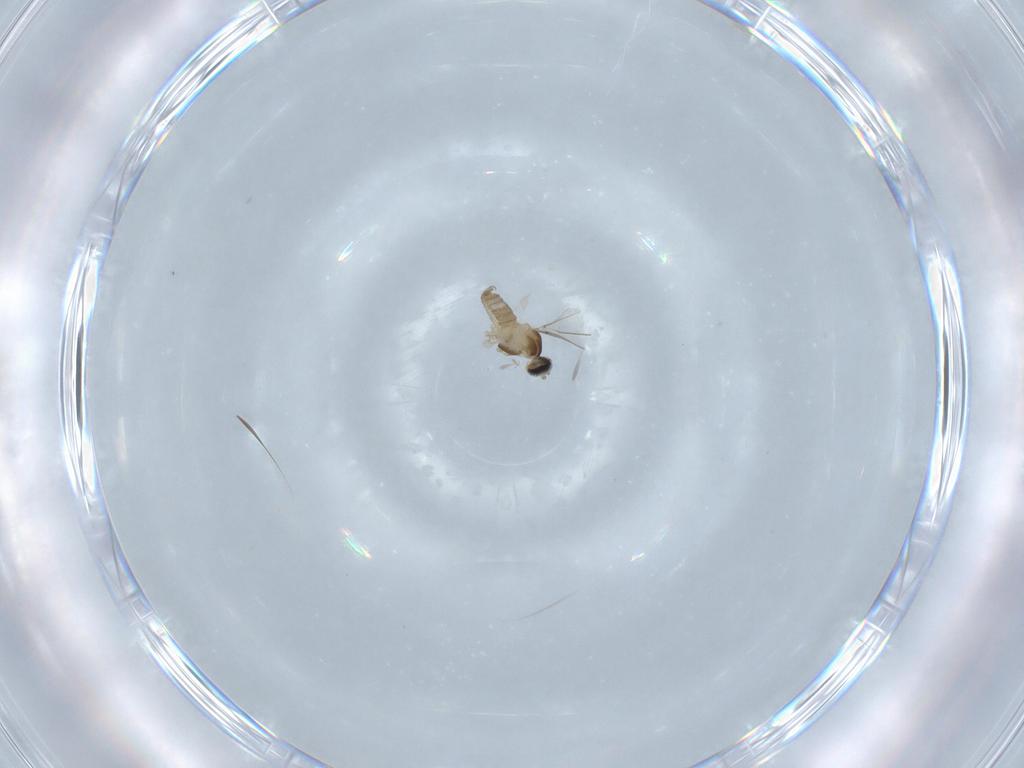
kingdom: Animalia
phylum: Arthropoda
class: Insecta
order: Diptera
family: Cecidomyiidae
